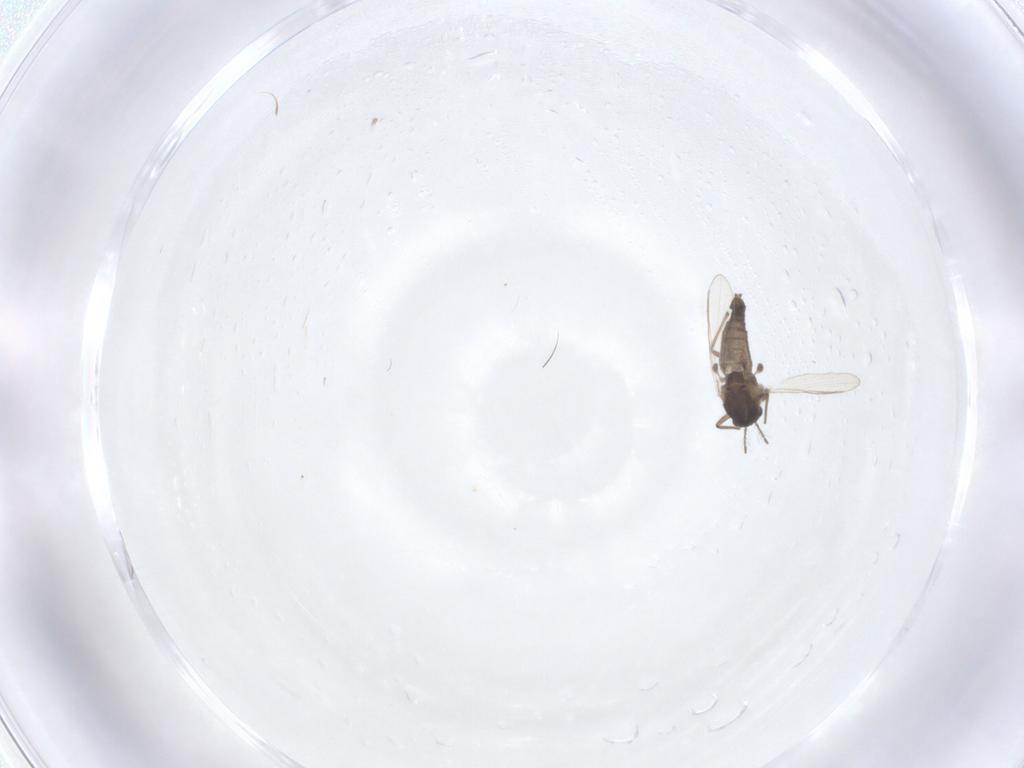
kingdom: Animalia
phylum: Arthropoda
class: Insecta
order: Diptera
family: Chironomidae
